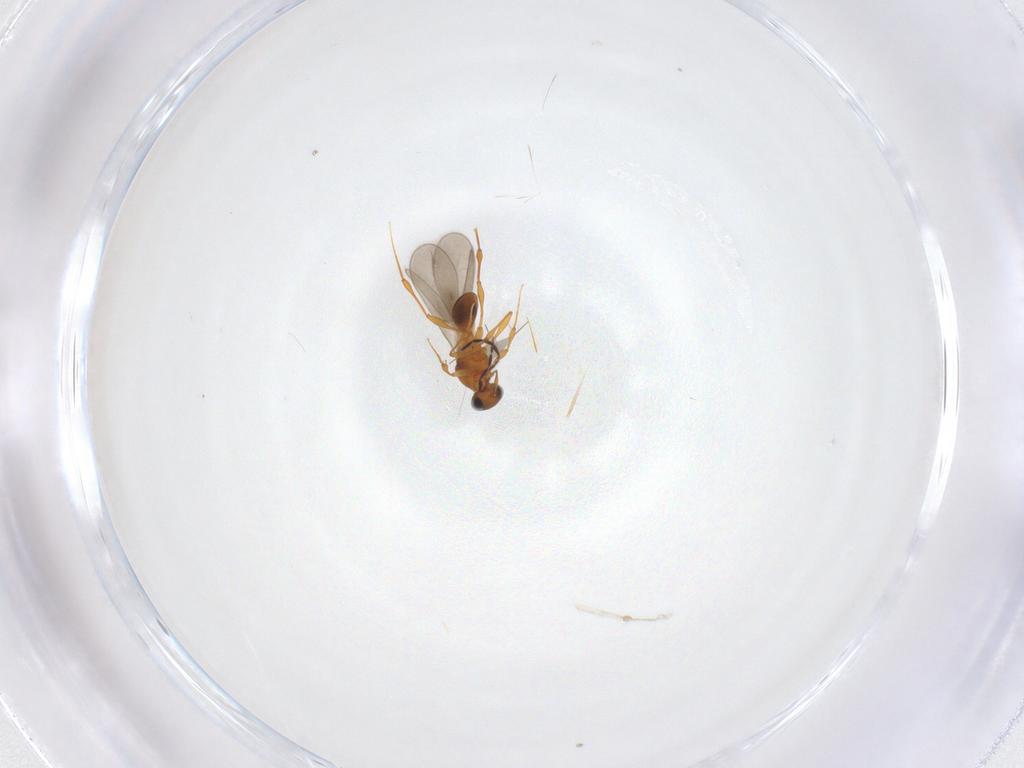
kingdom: Animalia
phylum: Arthropoda
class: Insecta
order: Hymenoptera
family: Platygastridae
